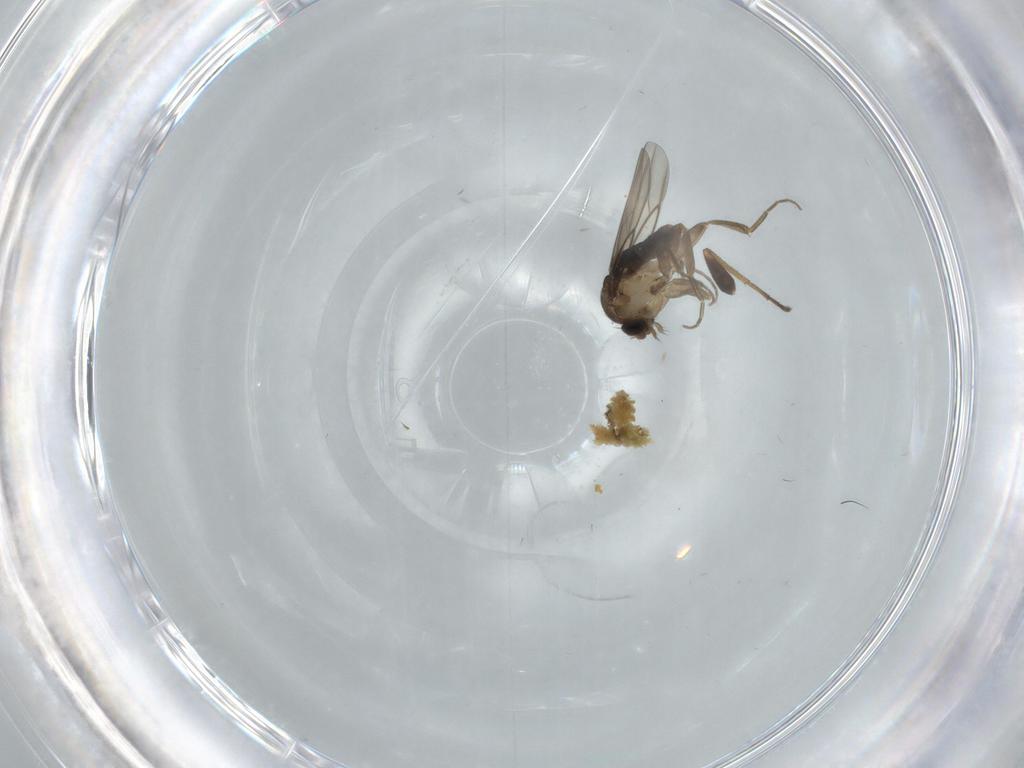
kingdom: Animalia
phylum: Arthropoda
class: Insecta
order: Diptera
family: Phoridae
